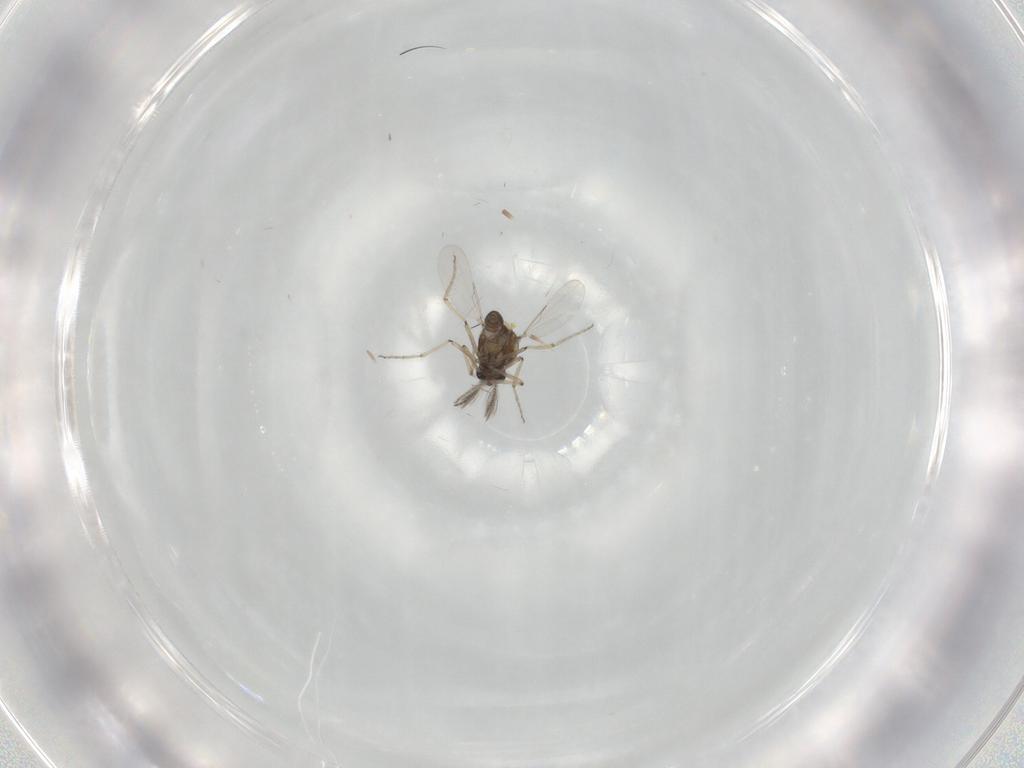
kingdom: Animalia
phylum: Arthropoda
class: Insecta
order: Diptera
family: Ceratopogonidae
